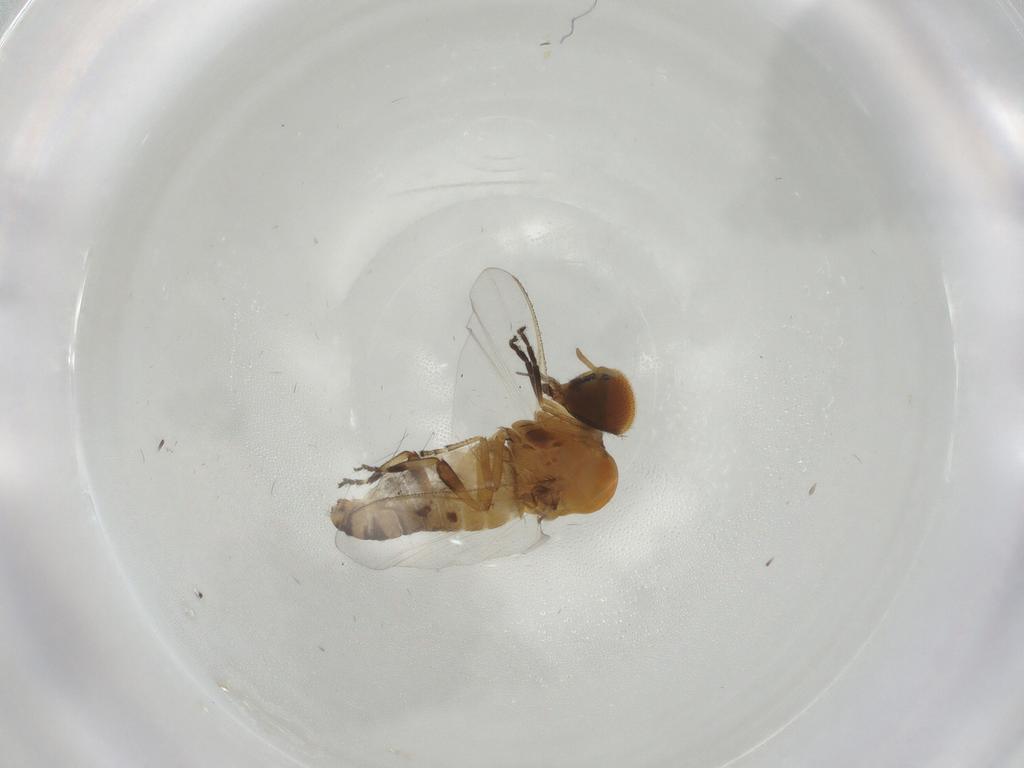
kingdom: Animalia
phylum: Arthropoda
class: Insecta
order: Diptera
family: Simuliidae
